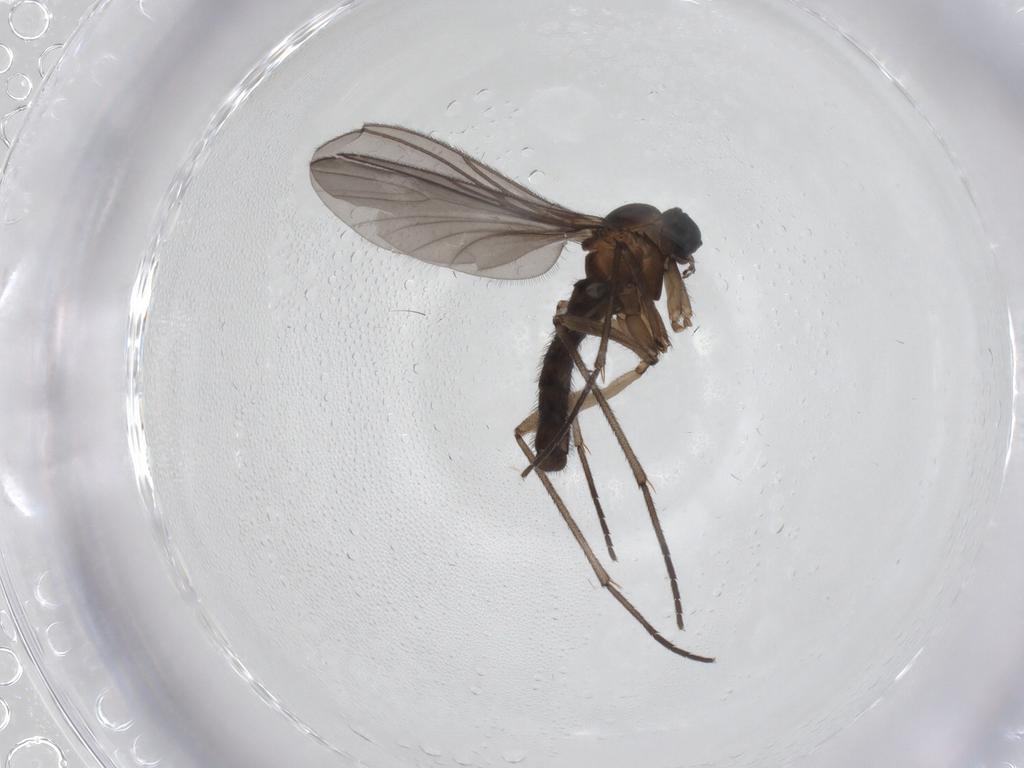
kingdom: Animalia
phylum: Arthropoda
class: Insecta
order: Diptera
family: Sciaridae
